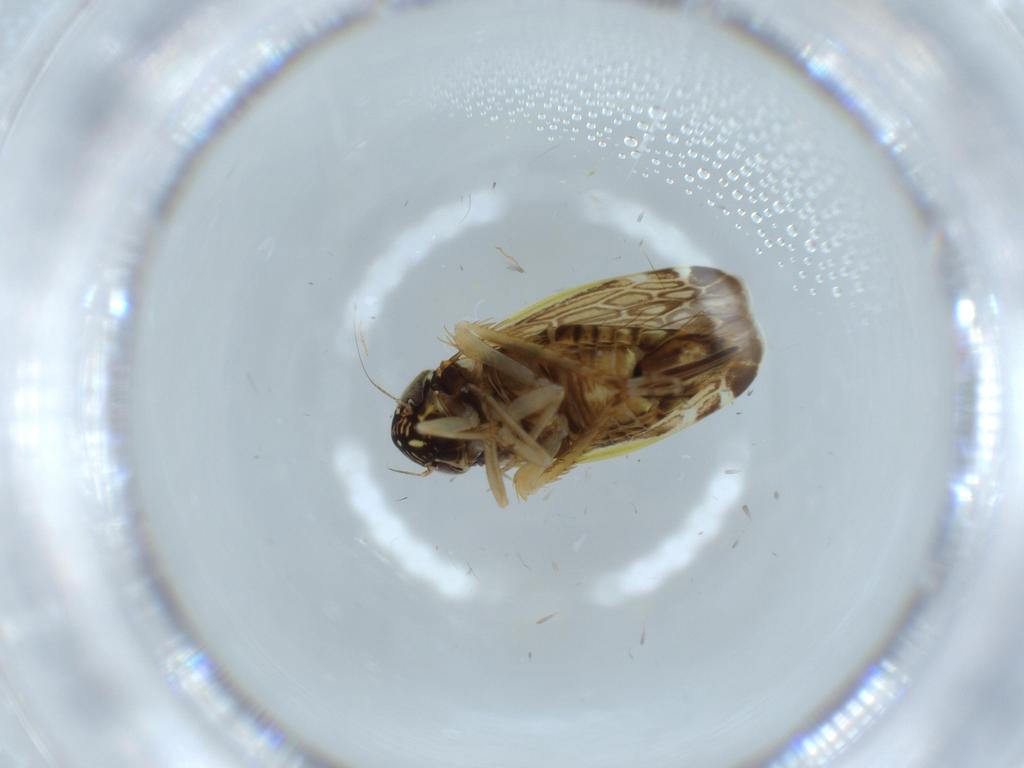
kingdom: Animalia
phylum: Arthropoda
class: Insecta
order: Hemiptera
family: Cicadellidae
